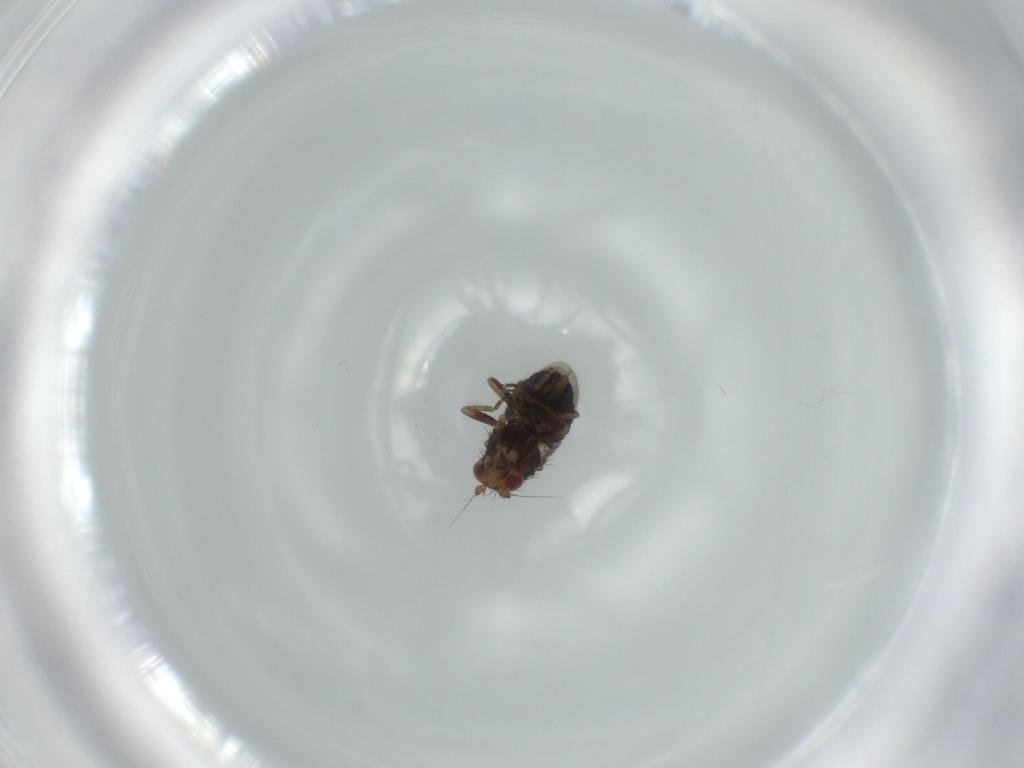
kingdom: Animalia
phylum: Arthropoda
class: Insecta
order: Diptera
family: Sphaeroceridae
